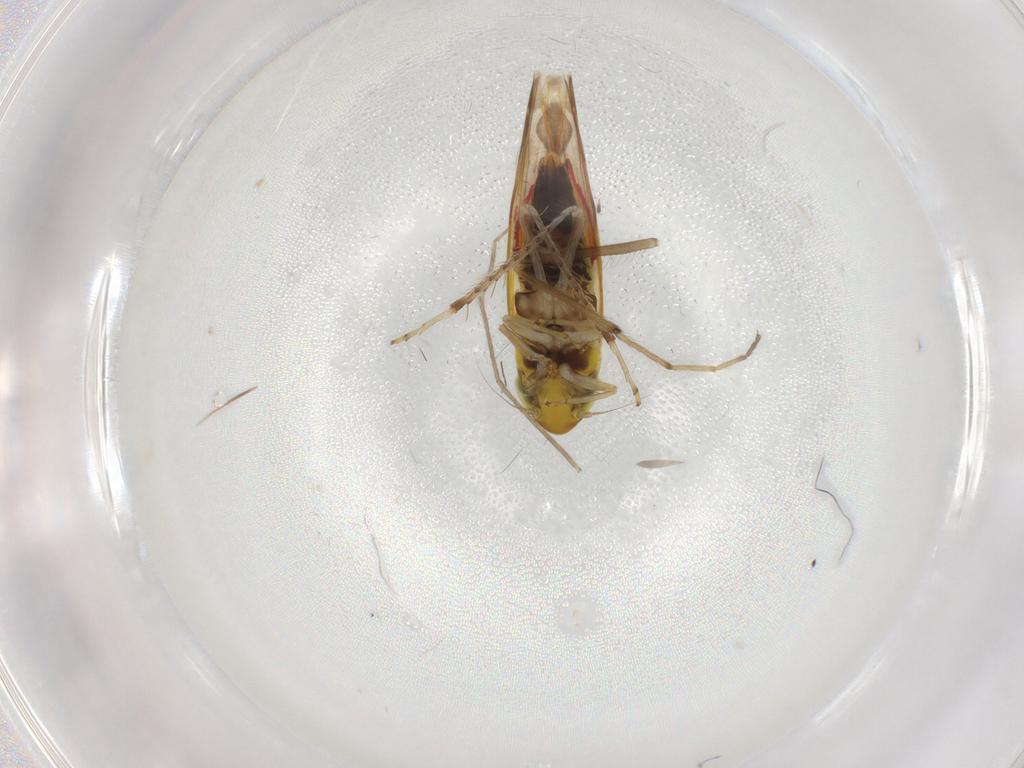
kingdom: Animalia
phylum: Arthropoda
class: Insecta
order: Hemiptera
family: Cicadellidae
